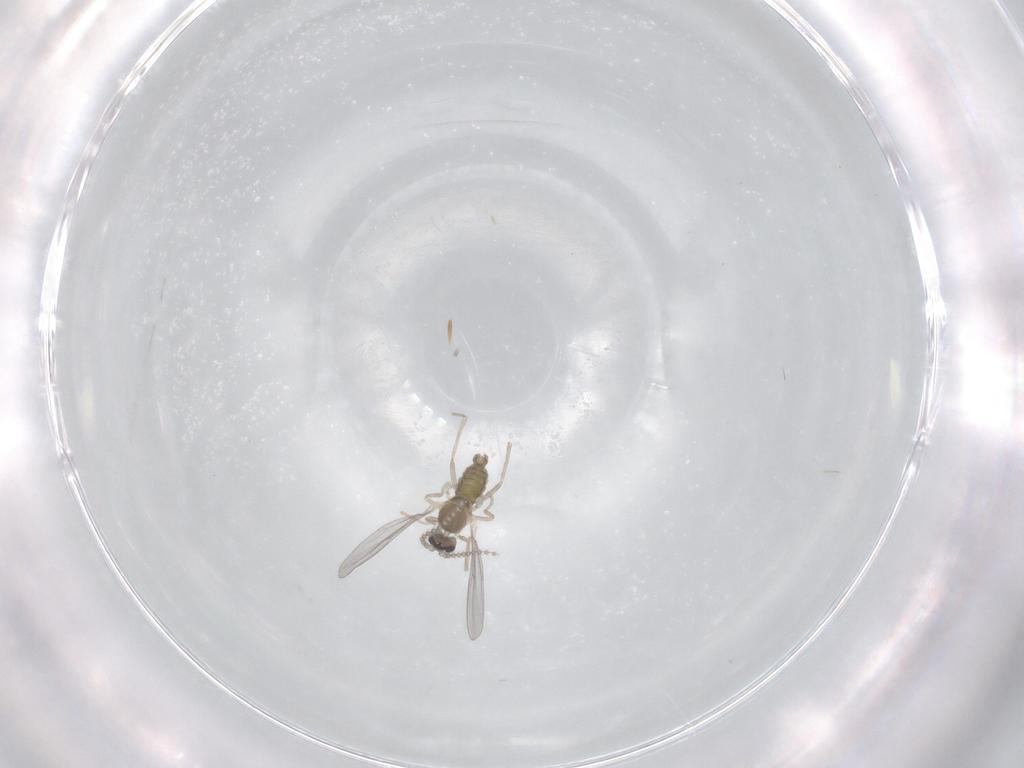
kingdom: Animalia
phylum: Arthropoda
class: Insecta
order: Diptera
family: Cecidomyiidae
